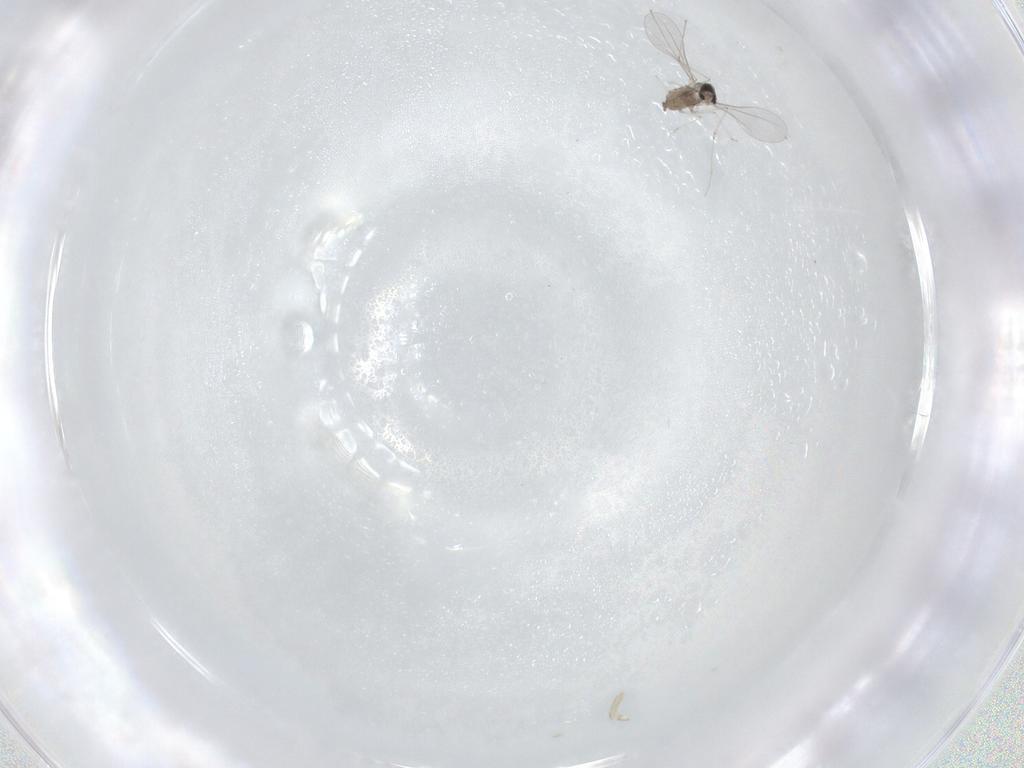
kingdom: Animalia
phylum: Arthropoda
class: Insecta
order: Diptera
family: Cecidomyiidae
